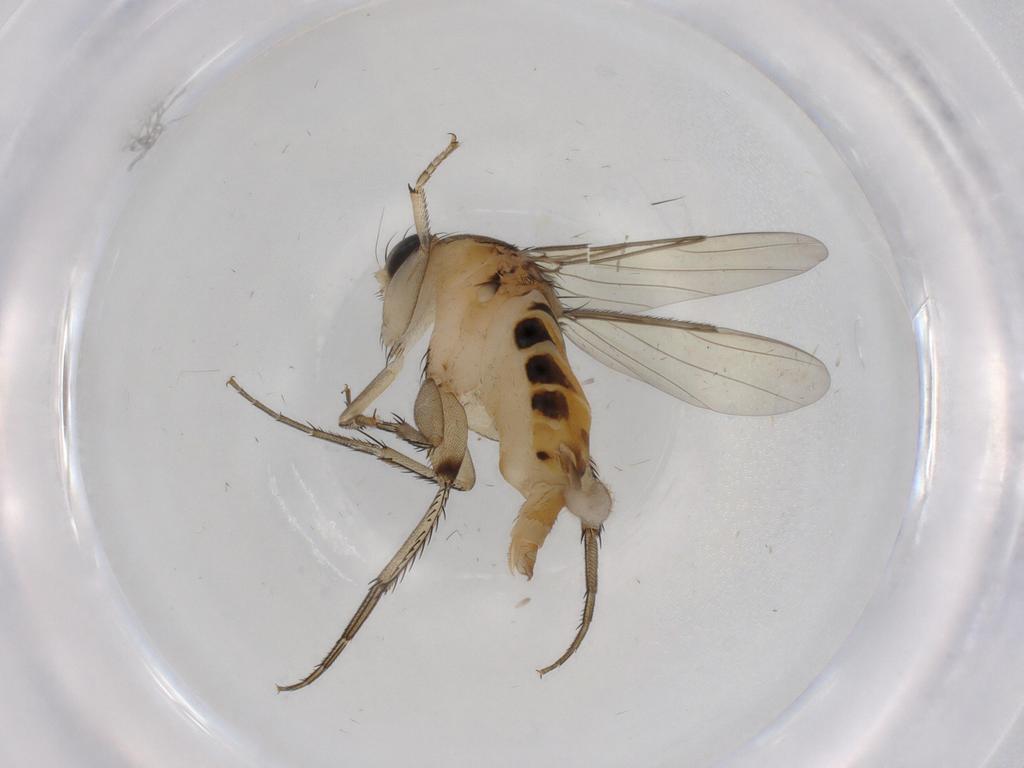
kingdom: Animalia
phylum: Arthropoda
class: Insecta
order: Diptera
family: Phoridae
